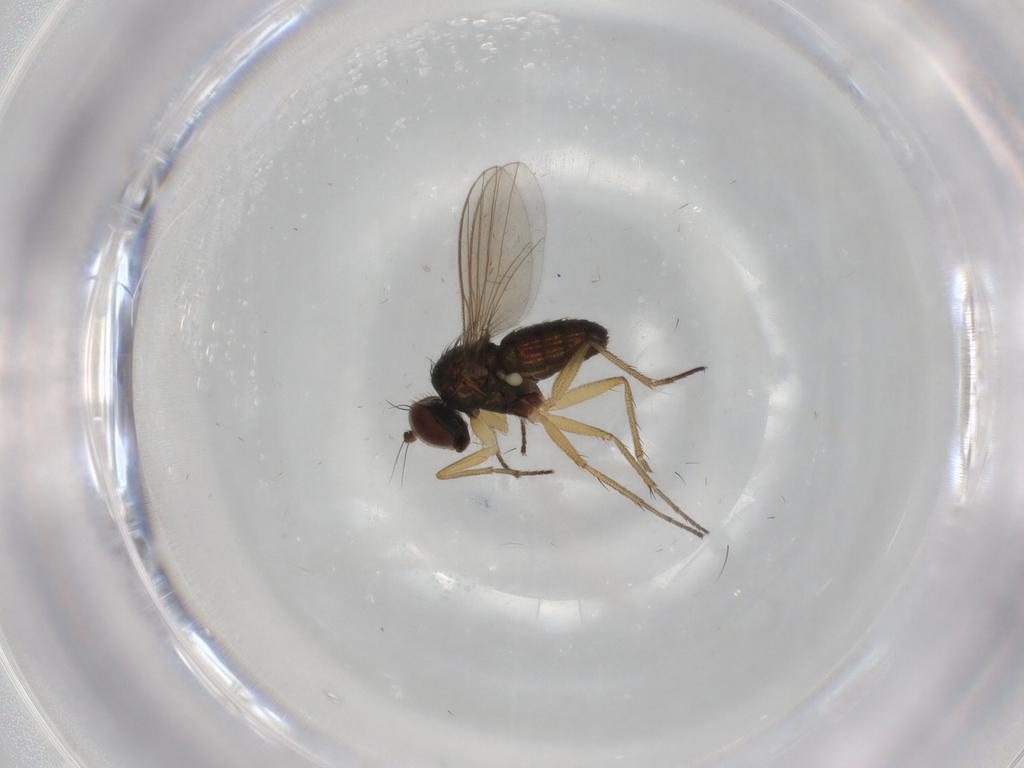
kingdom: Animalia
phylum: Arthropoda
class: Insecta
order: Diptera
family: Dolichopodidae
